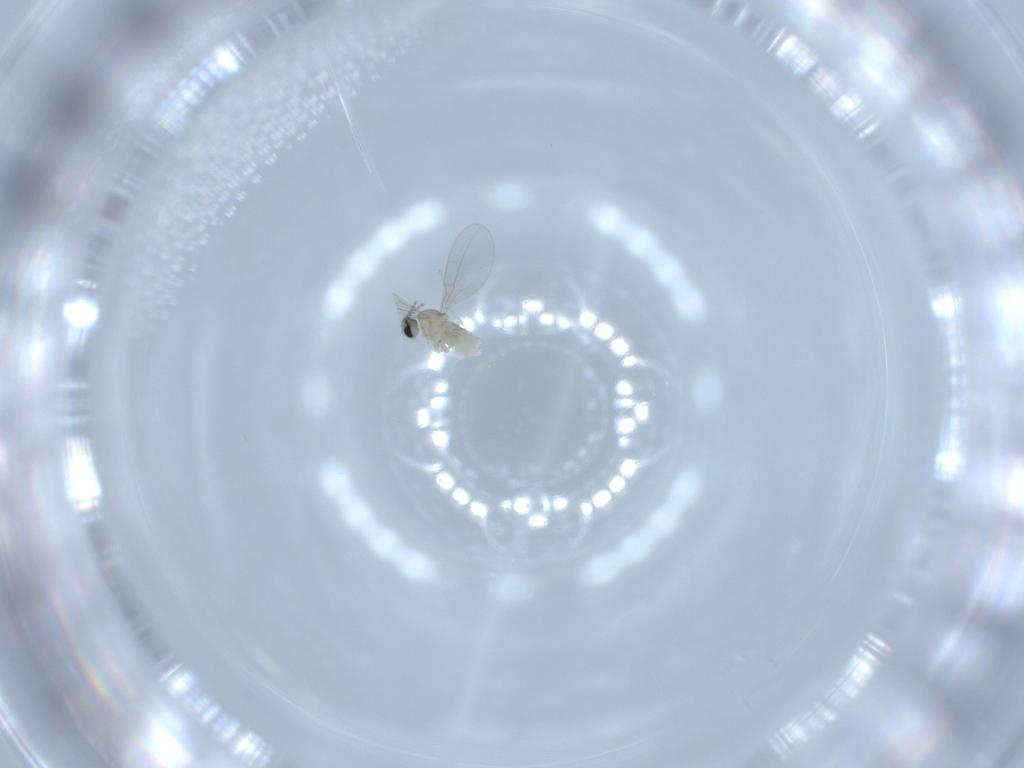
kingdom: Animalia
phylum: Arthropoda
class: Insecta
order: Diptera
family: Cecidomyiidae
